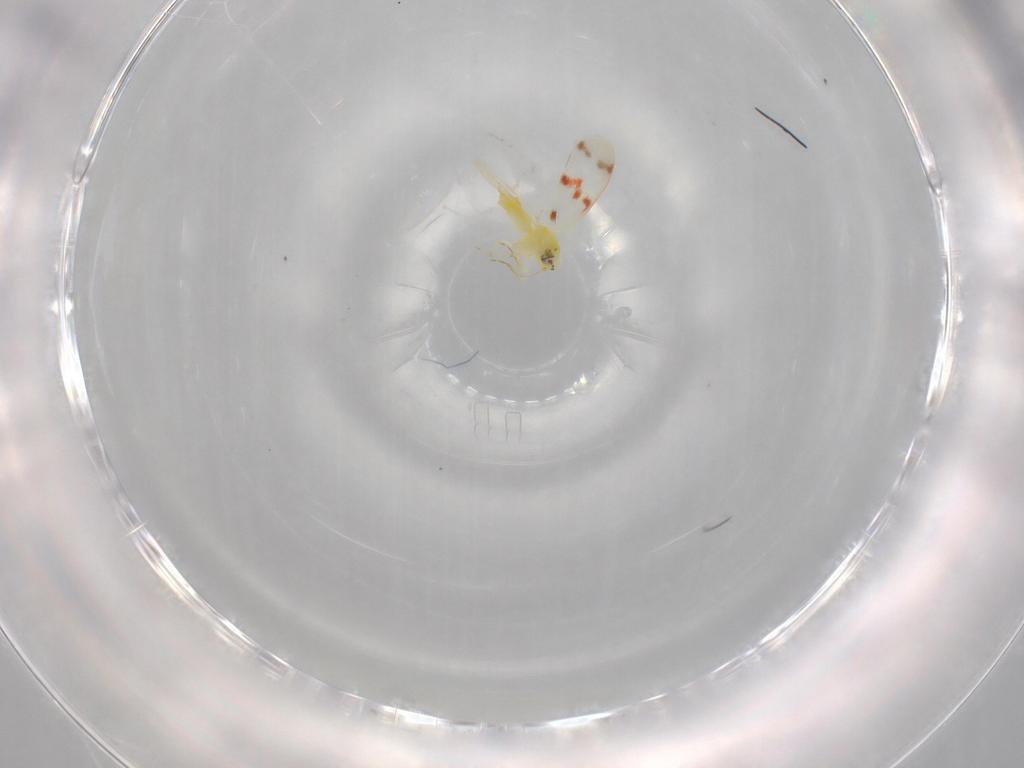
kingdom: Animalia
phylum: Arthropoda
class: Insecta
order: Hemiptera
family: Aleyrodidae
